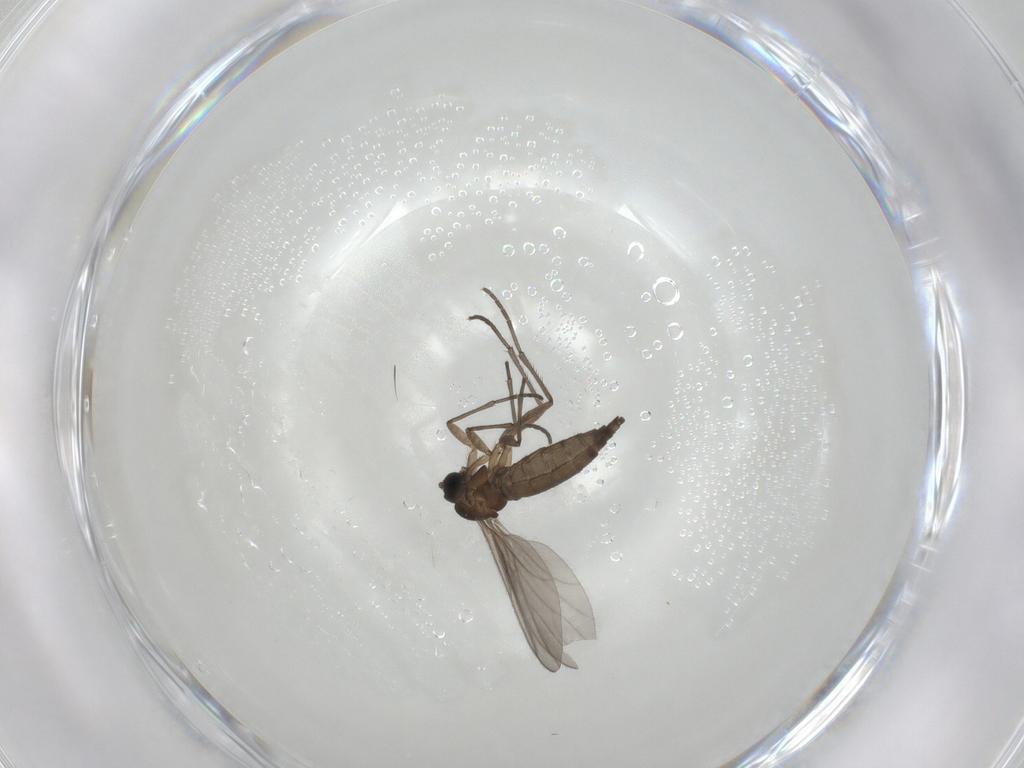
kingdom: Animalia
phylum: Arthropoda
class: Insecta
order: Diptera
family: Phoridae
